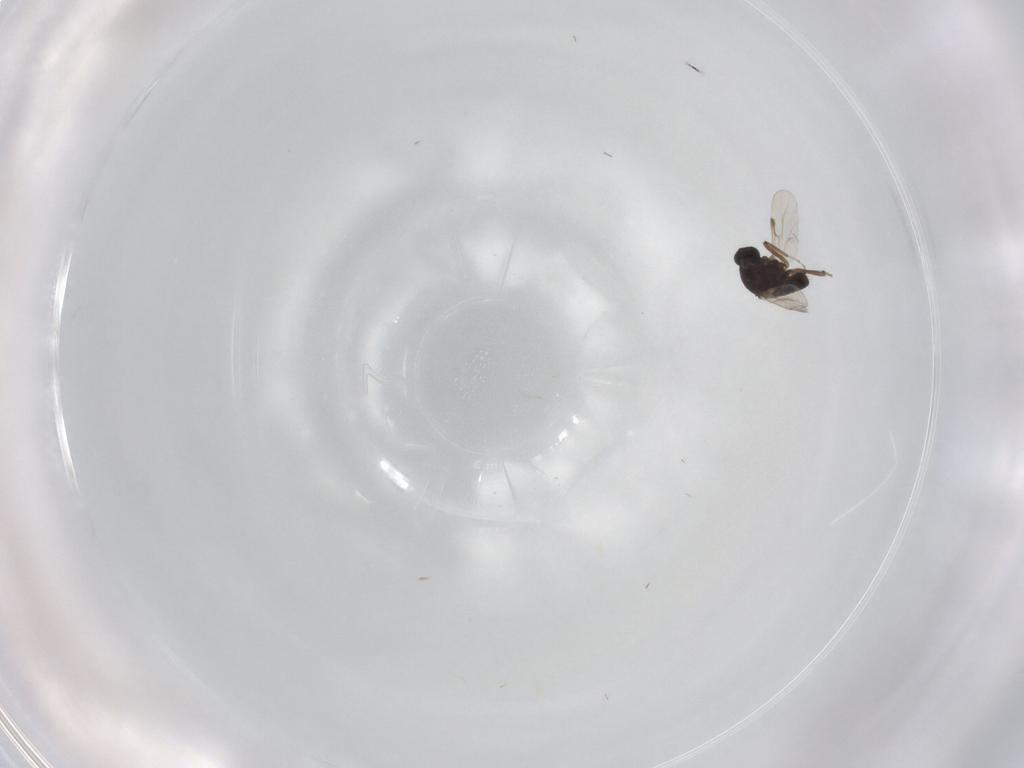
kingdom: Animalia
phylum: Arthropoda
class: Insecta
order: Diptera
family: Ceratopogonidae
